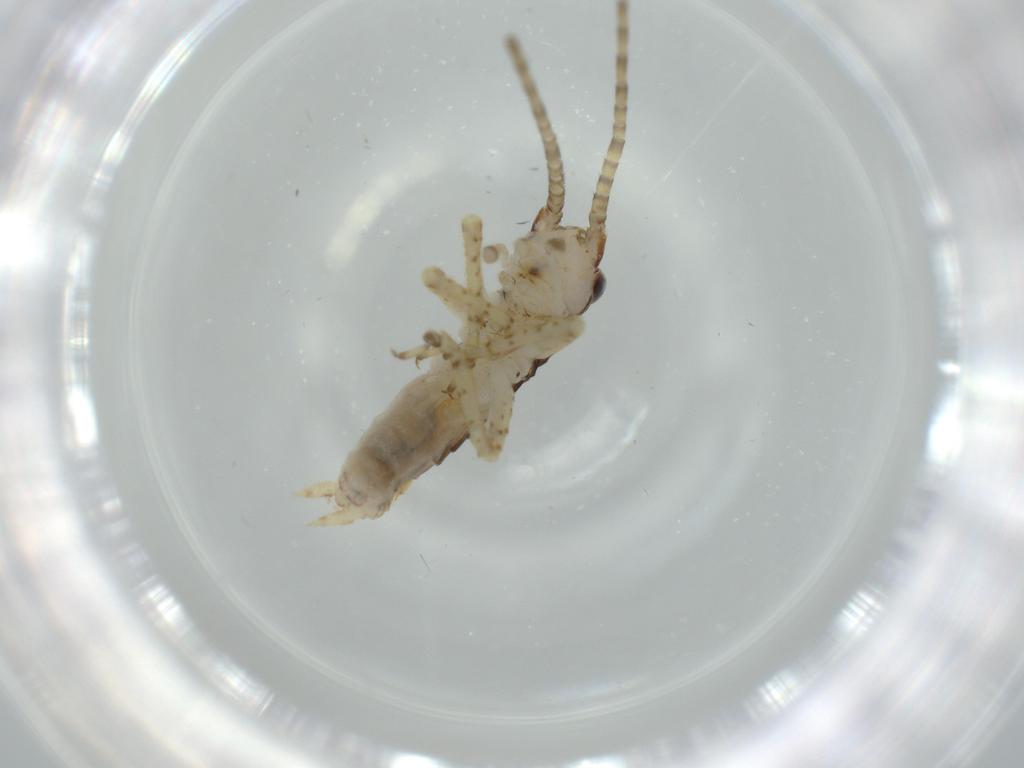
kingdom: Animalia
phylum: Arthropoda
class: Insecta
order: Orthoptera
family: Gryllidae
